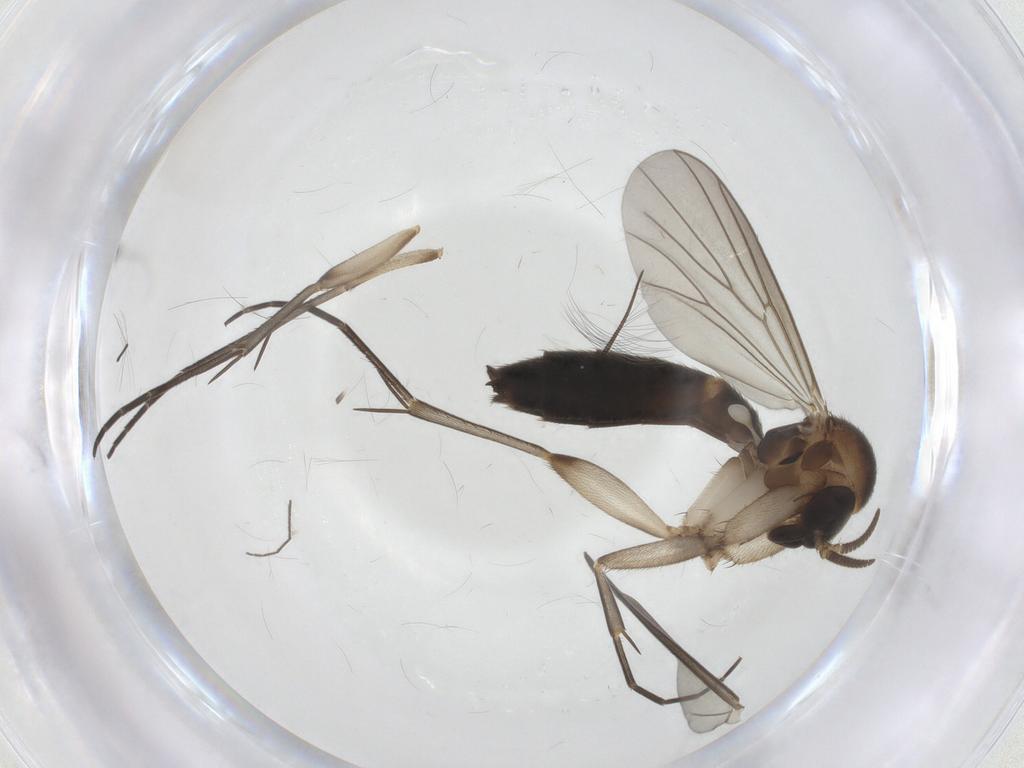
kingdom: Animalia
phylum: Arthropoda
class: Insecta
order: Diptera
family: Mycetophilidae
